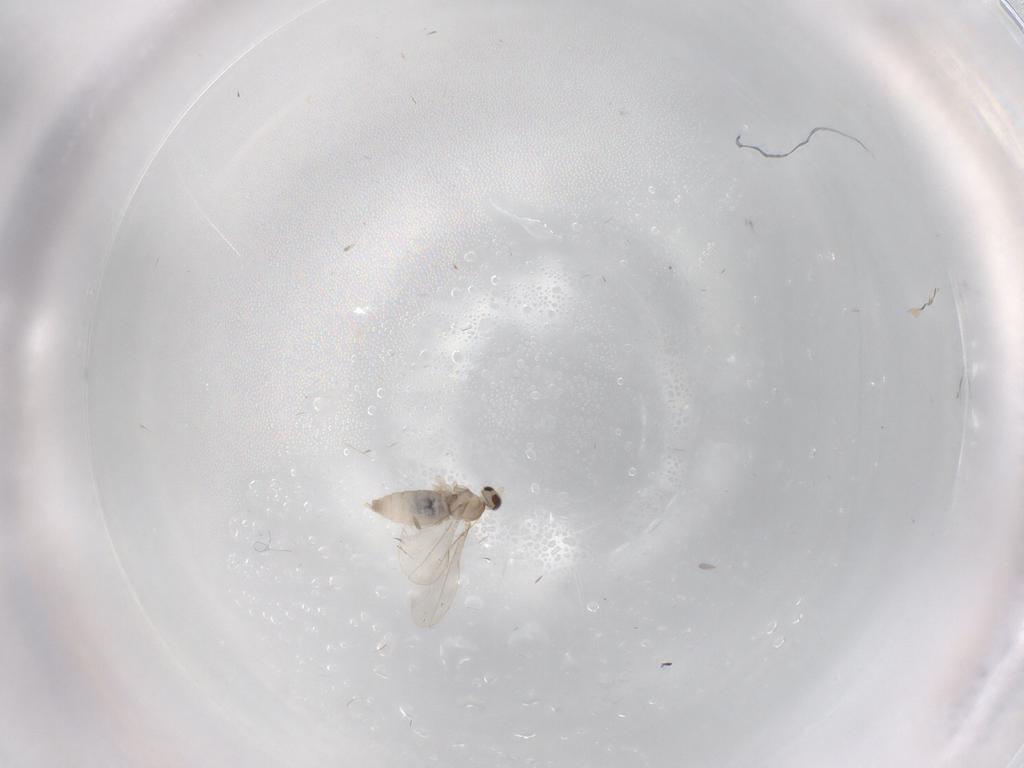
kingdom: Animalia
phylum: Arthropoda
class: Insecta
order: Diptera
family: Cecidomyiidae
